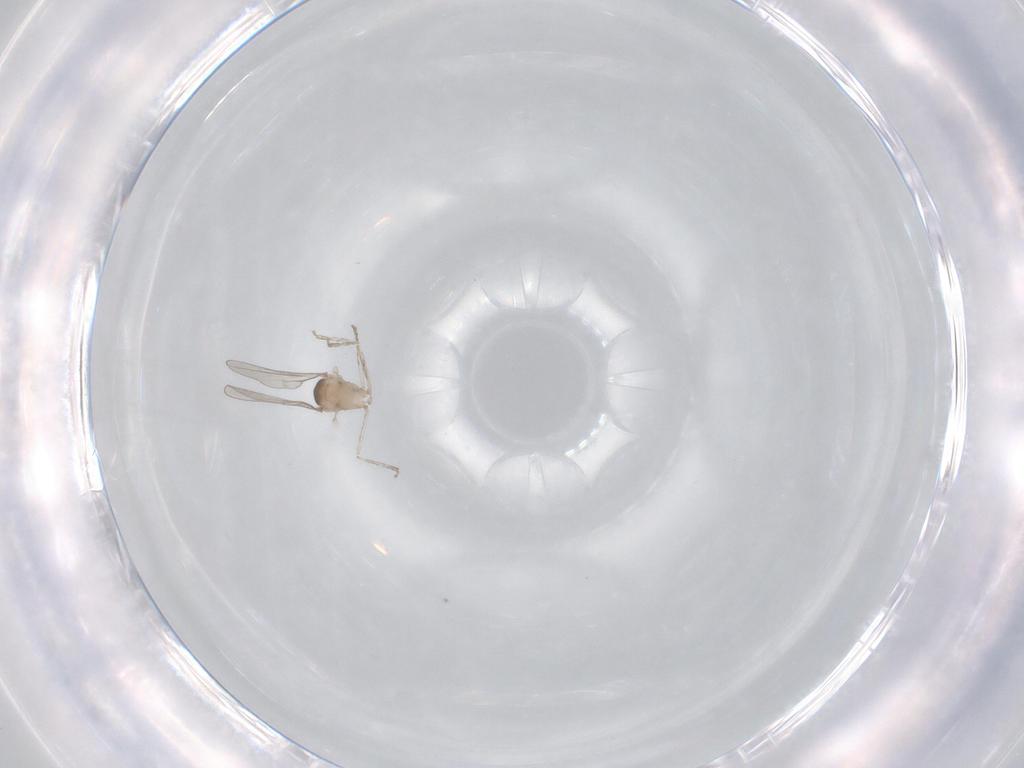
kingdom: Animalia
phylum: Arthropoda
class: Insecta
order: Diptera
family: Cecidomyiidae
